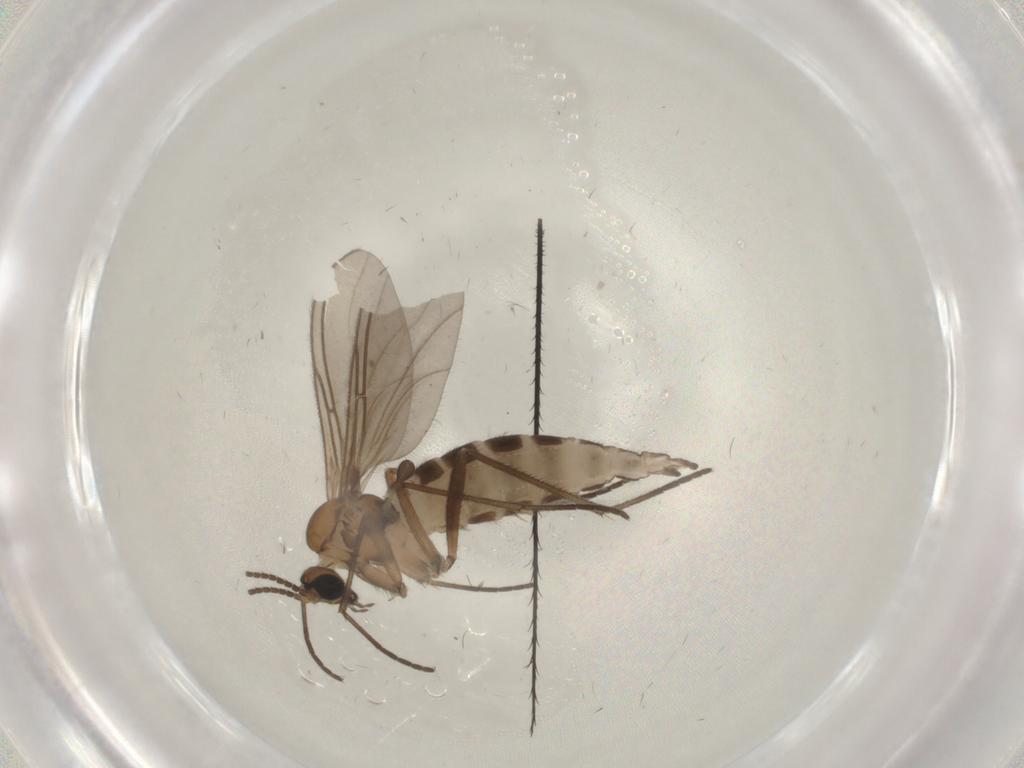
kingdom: Animalia
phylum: Arthropoda
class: Insecta
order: Diptera
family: Sciaridae
